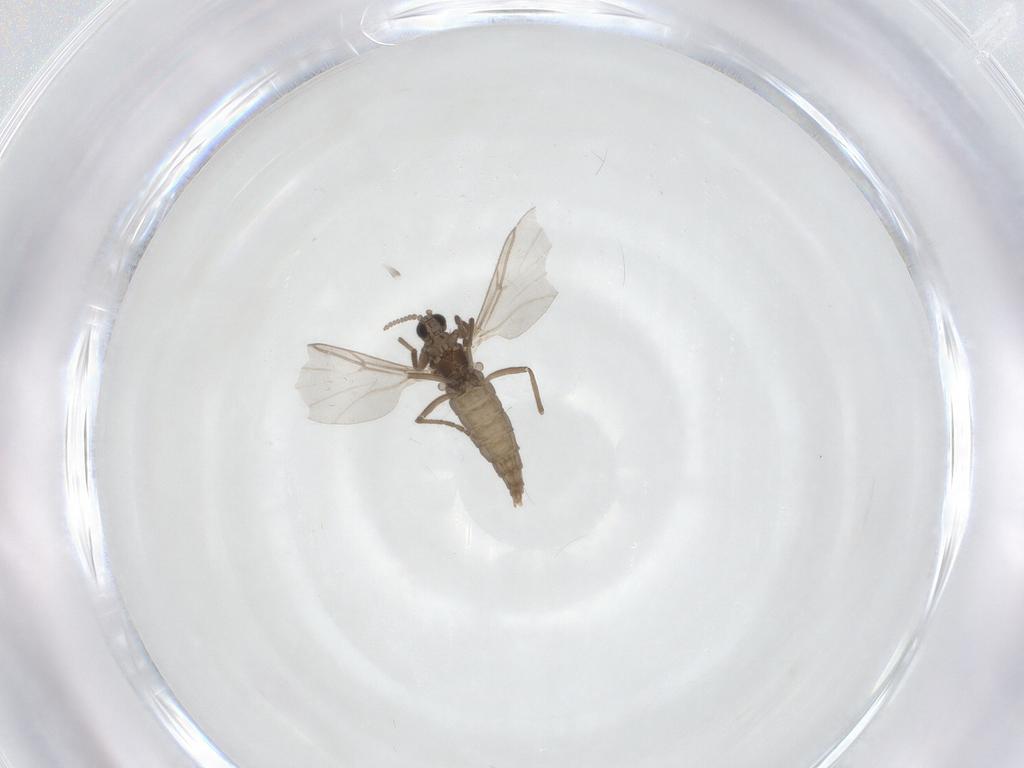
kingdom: Animalia
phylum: Arthropoda
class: Insecta
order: Diptera
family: Cecidomyiidae
